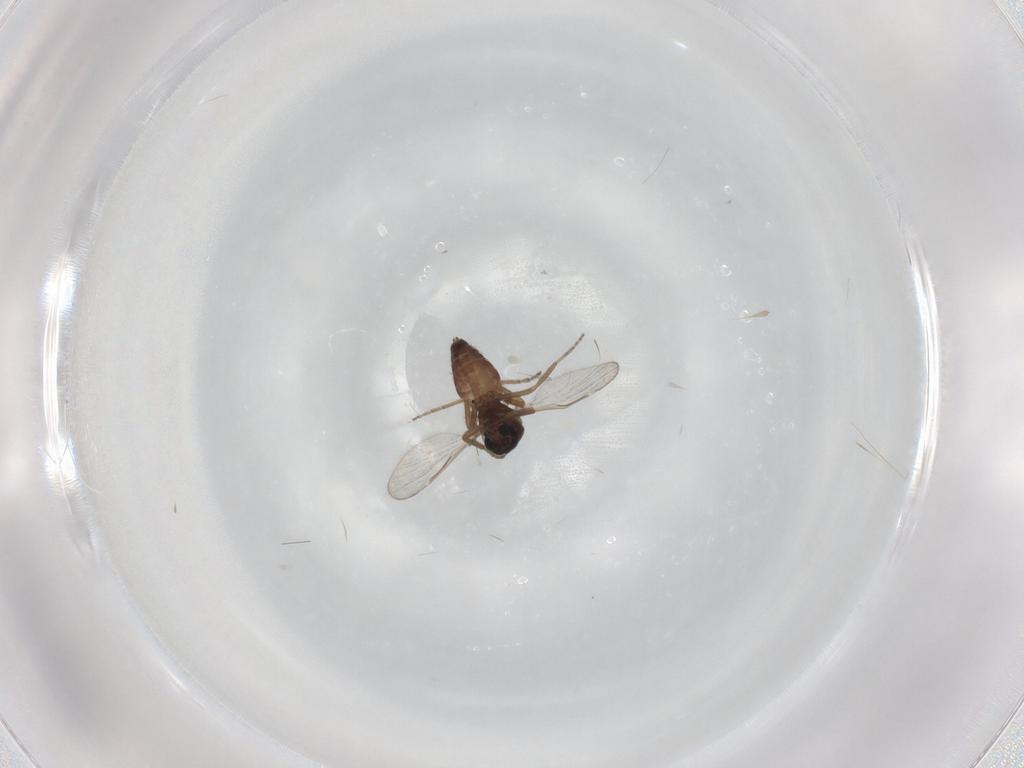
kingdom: Animalia
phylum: Arthropoda
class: Insecta
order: Diptera
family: Ceratopogonidae
